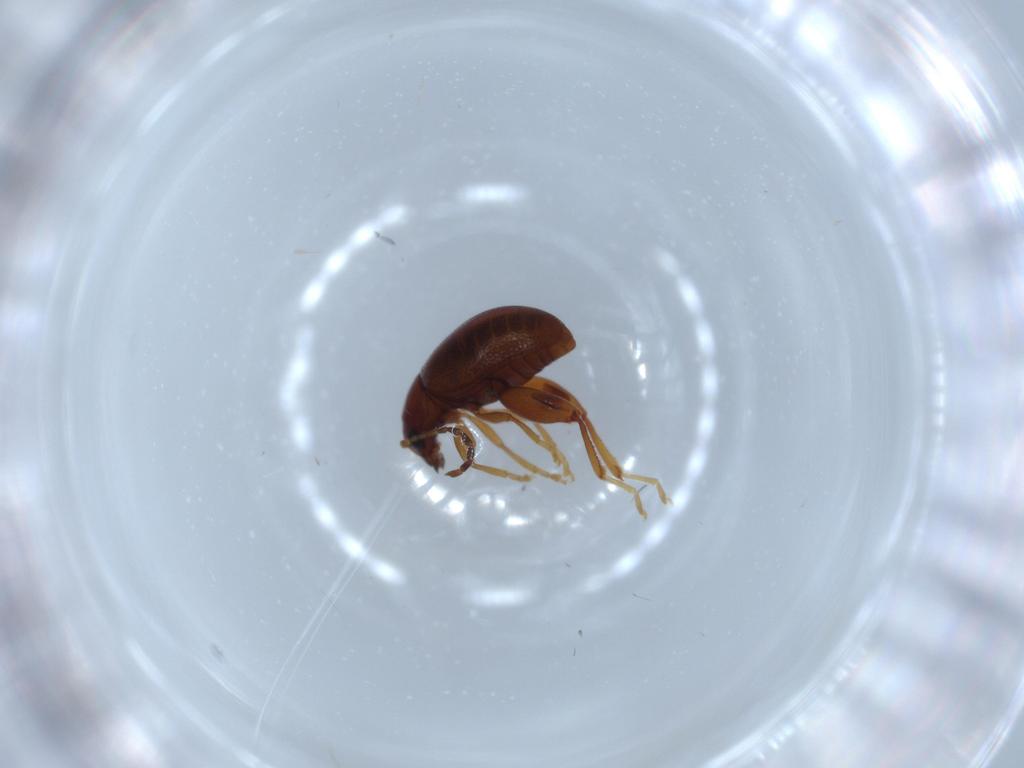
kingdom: Animalia
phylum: Arthropoda
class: Insecta
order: Coleoptera
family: Chrysomelidae
